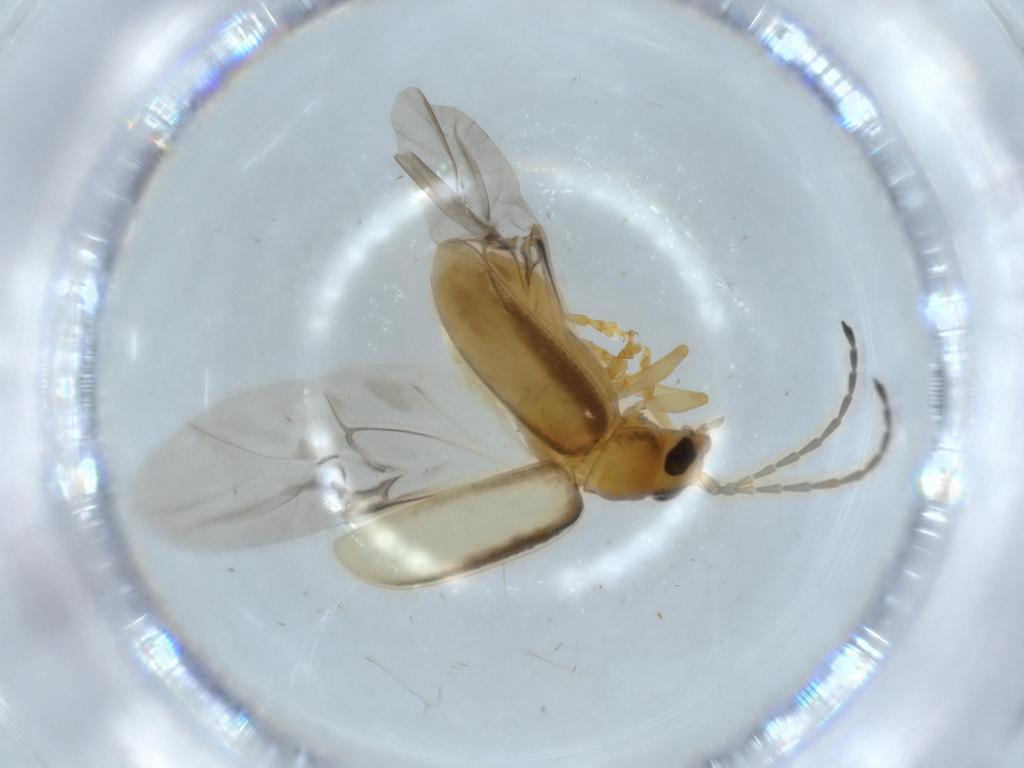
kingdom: Animalia
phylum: Arthropoda
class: Insecta
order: Coleoptera
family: Chrysomelidae
